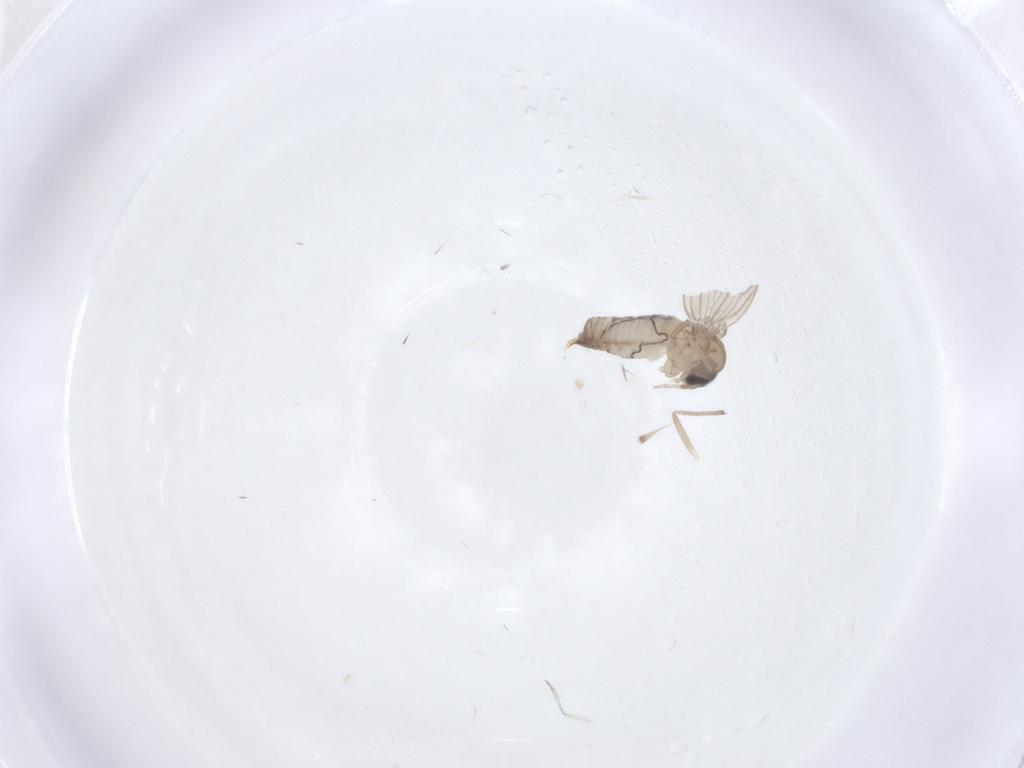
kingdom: Animalia
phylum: Arthropoda
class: Insecta
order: Diptera
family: Psychodidae
